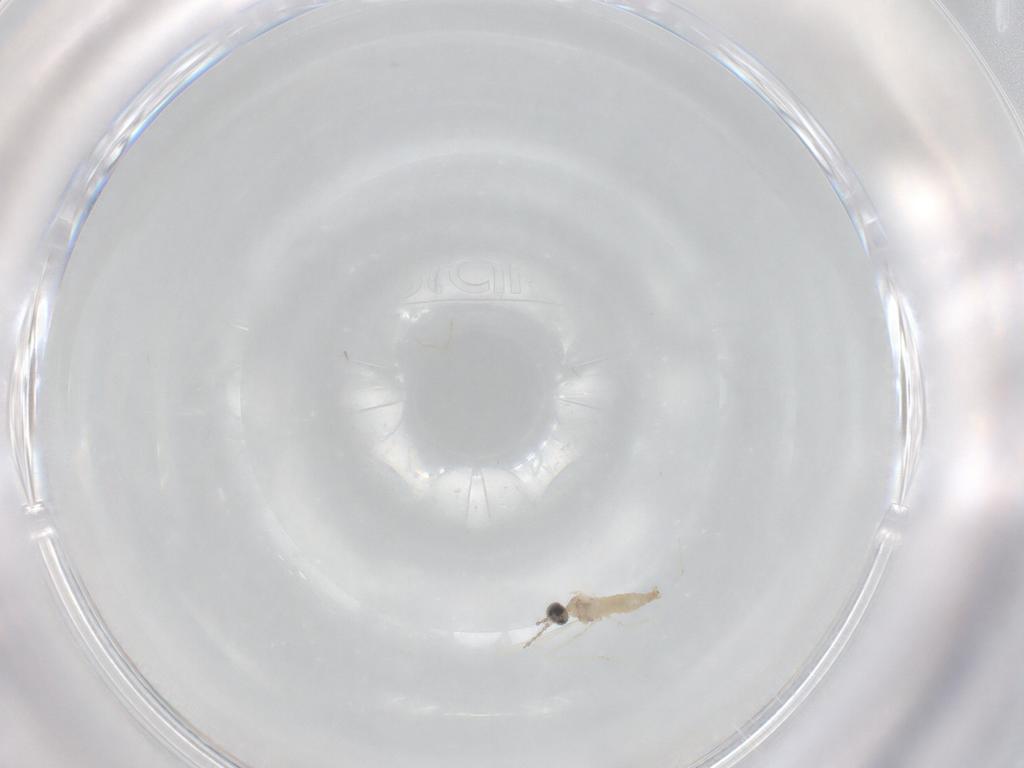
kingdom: Animalia
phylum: Arthropoda
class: Insecta
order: Diptera
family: Cecidomyiidae
